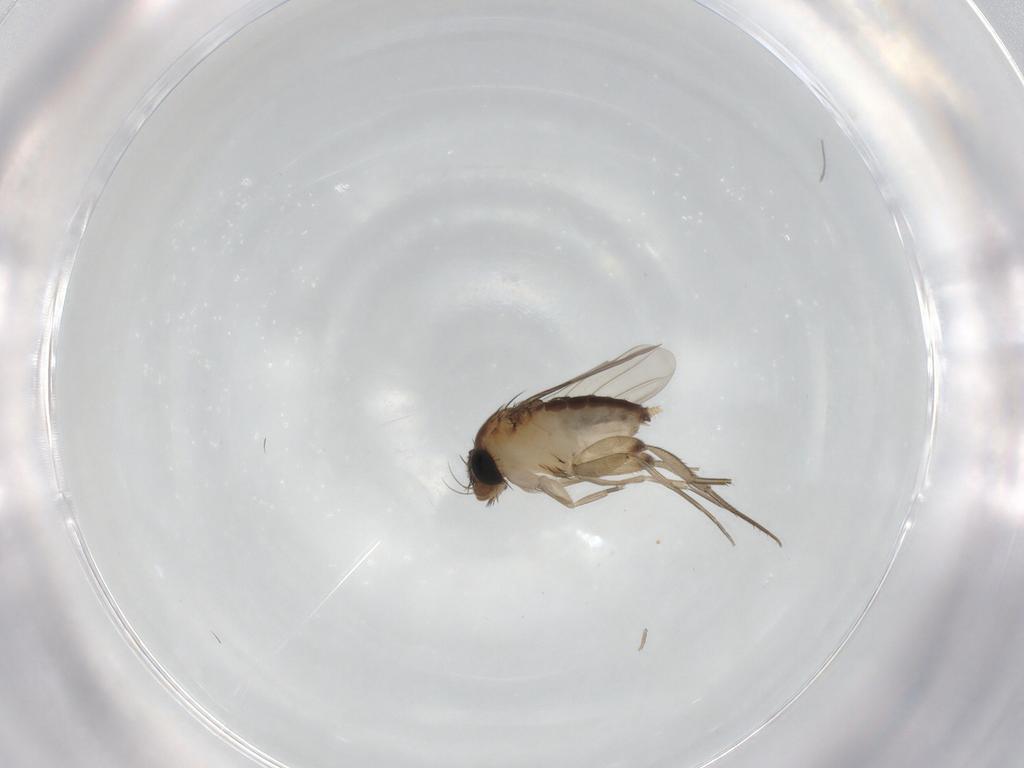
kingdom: Animalia
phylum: Arthropoda
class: Insecta
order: Diptera
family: Phoridae
